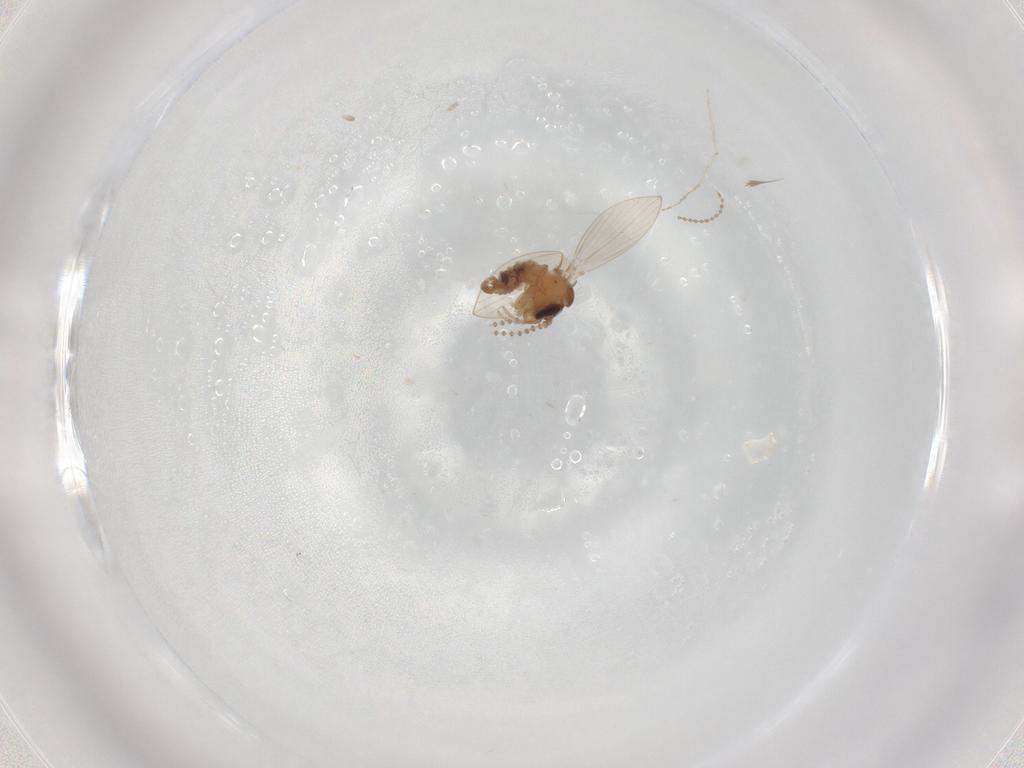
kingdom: Animalia
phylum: Arthropoda
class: Insecta
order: Diptera
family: Psychodidae
